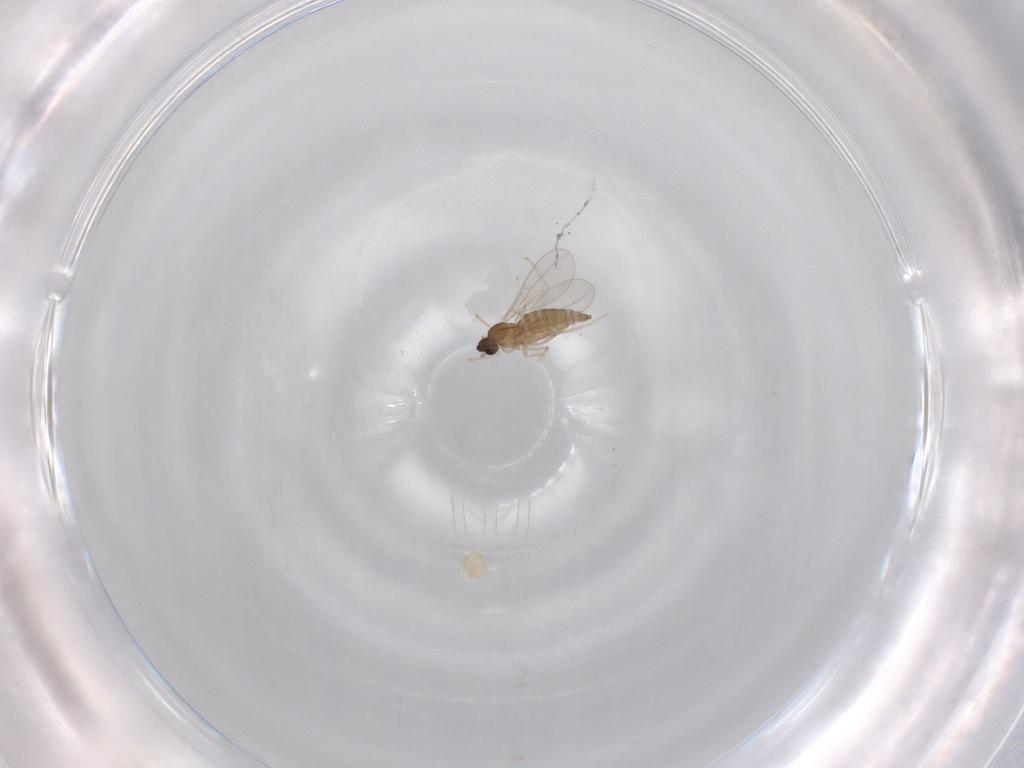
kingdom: Animalia
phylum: Arthropoda
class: Insecta
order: Diptera
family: Cecidomyiidae
